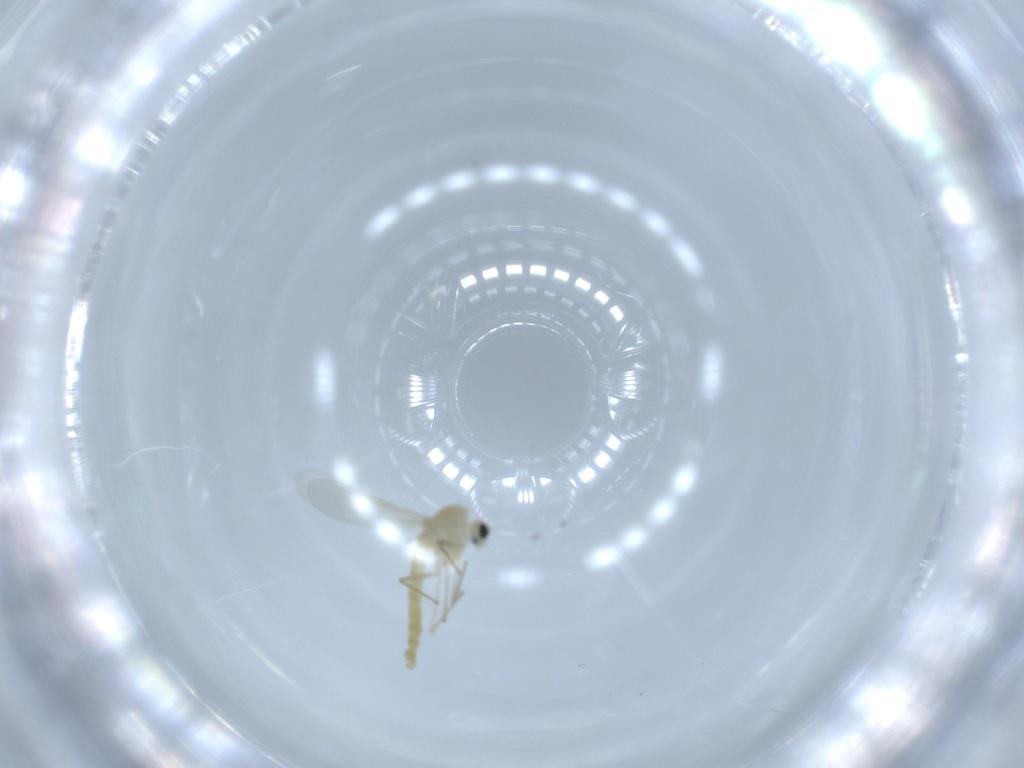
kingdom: Animalia
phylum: Arthropoda
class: Insecta
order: Diptera
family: Chironomidae
